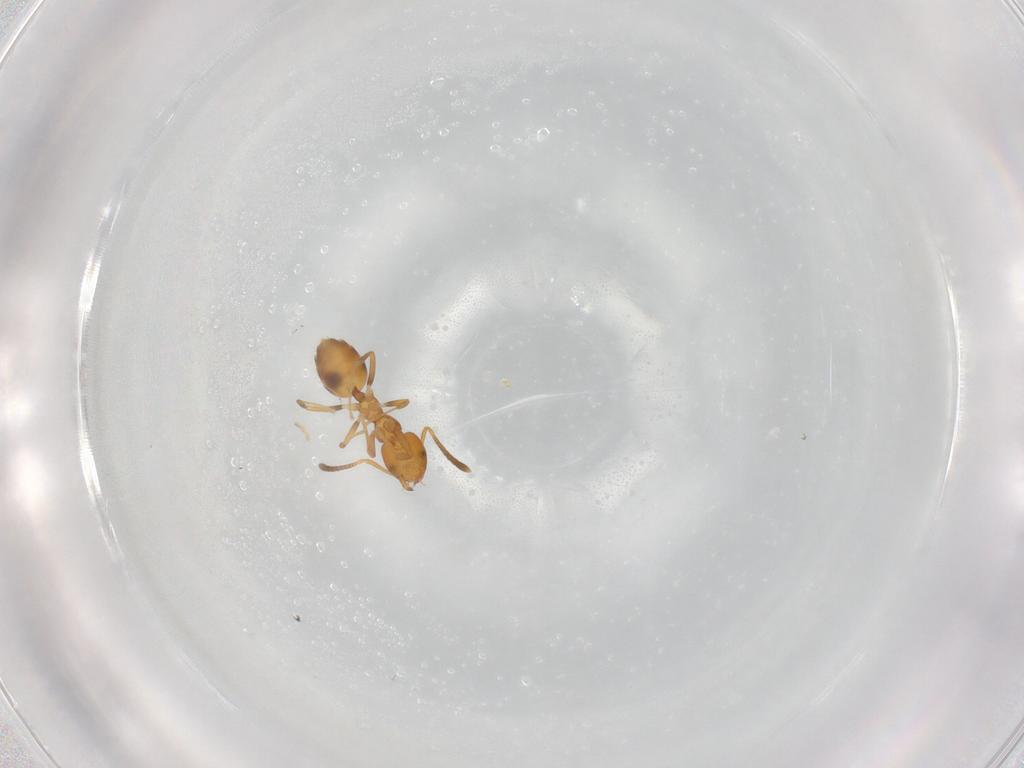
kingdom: Animalia
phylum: Arthropoda
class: Insecta
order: Hymenoptera
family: Formicidae
